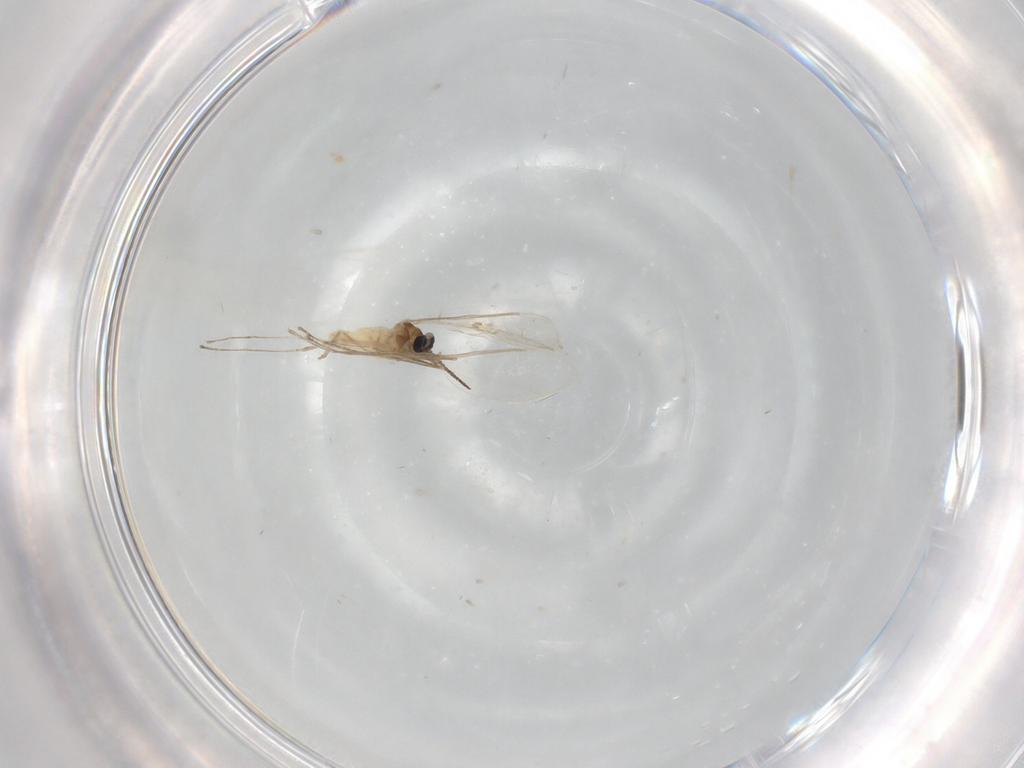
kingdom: Animalia
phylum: Arthropoda
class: Insecta
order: Diptera
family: Cecidomyiidae
